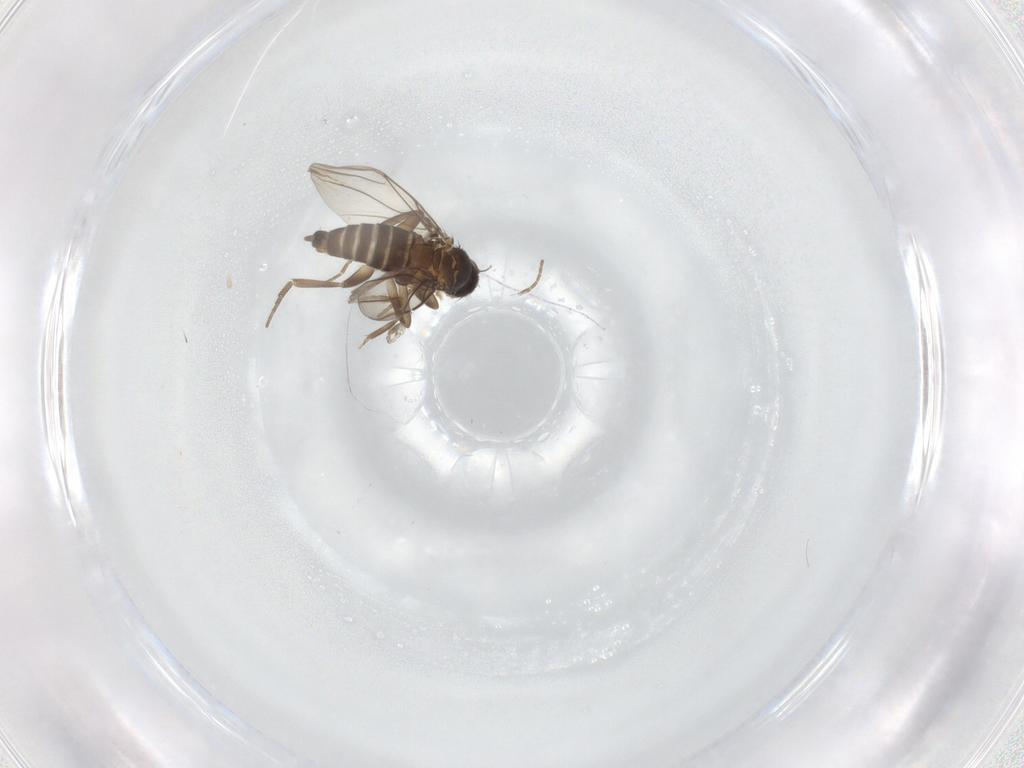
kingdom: Animalia
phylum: Arthropoda
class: Insecta
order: Diptera
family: Phoridae
